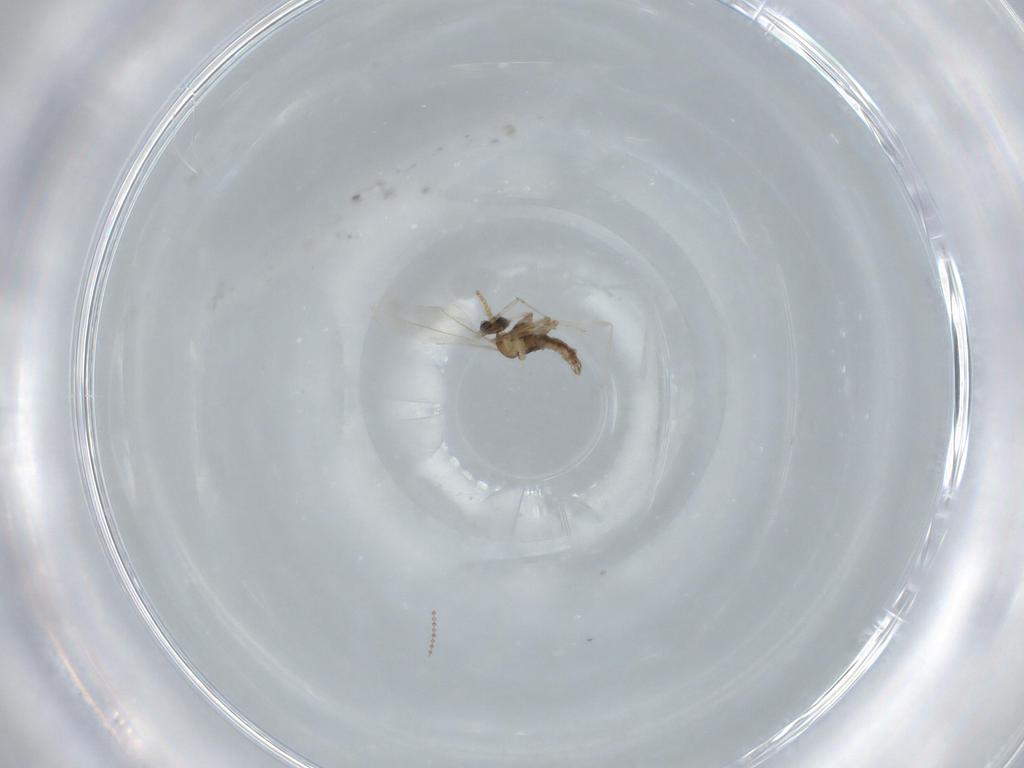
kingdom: Animalia
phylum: Arthropoda
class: Insecta
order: Diptera
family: Cecidomyiidae
